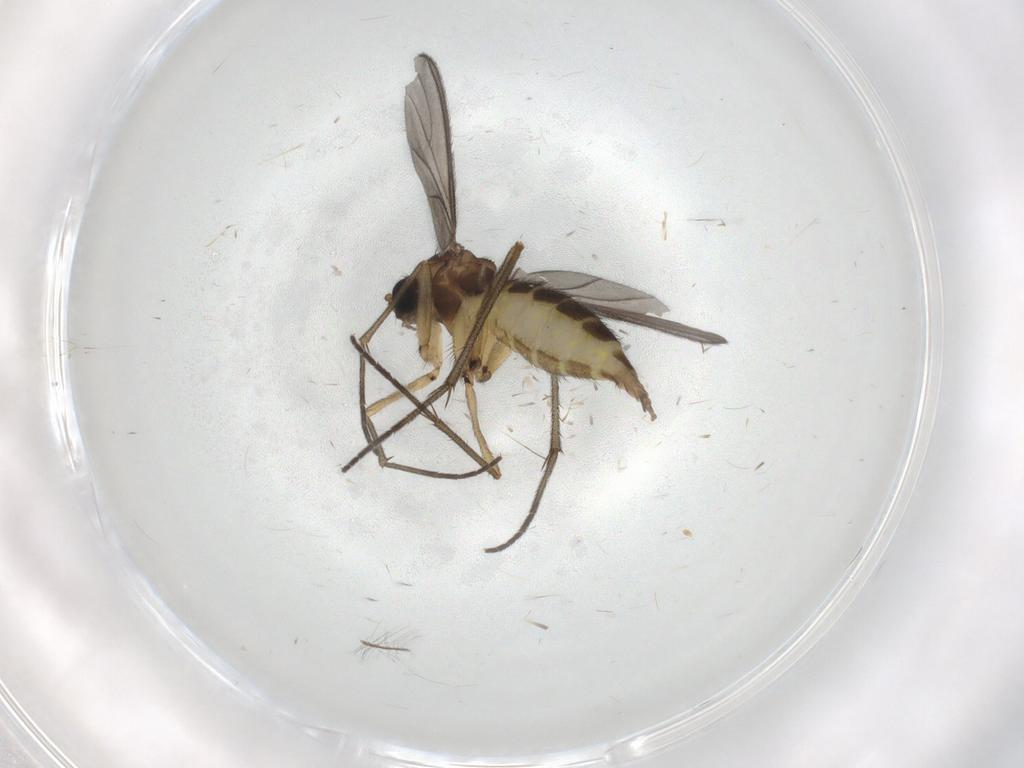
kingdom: Animalia
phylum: Arthropoda
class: Insecta
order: Diptera
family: Sciaridae
